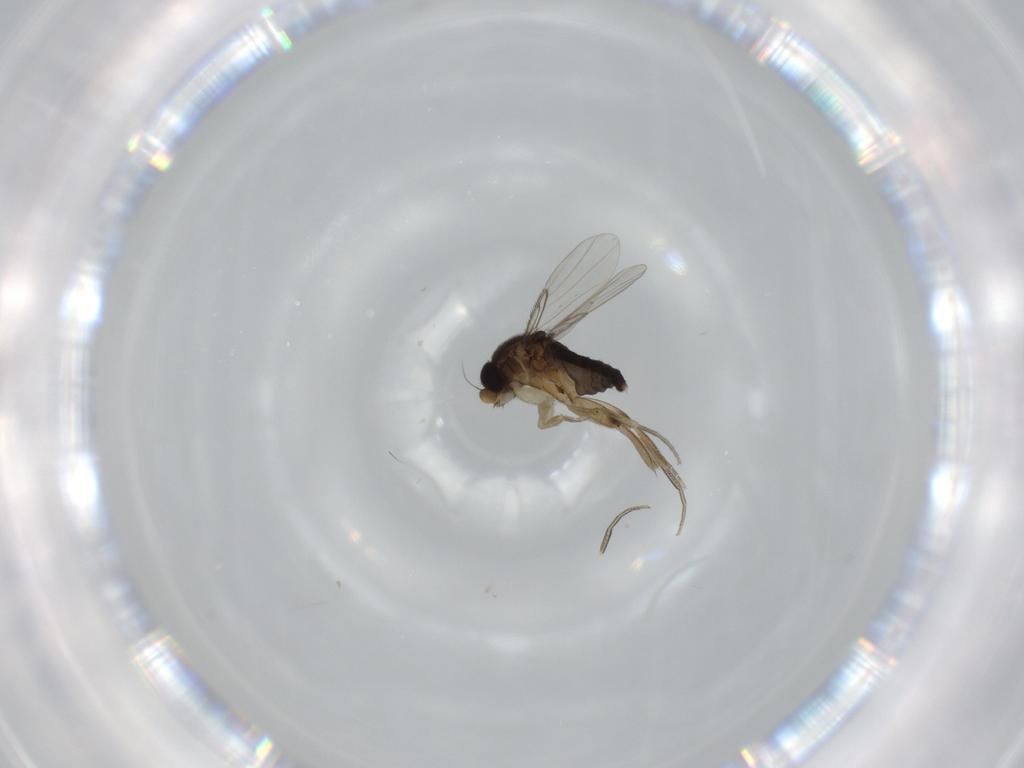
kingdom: Animalia
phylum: Arthropoda
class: Insecta
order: Diptera
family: Phoridae
